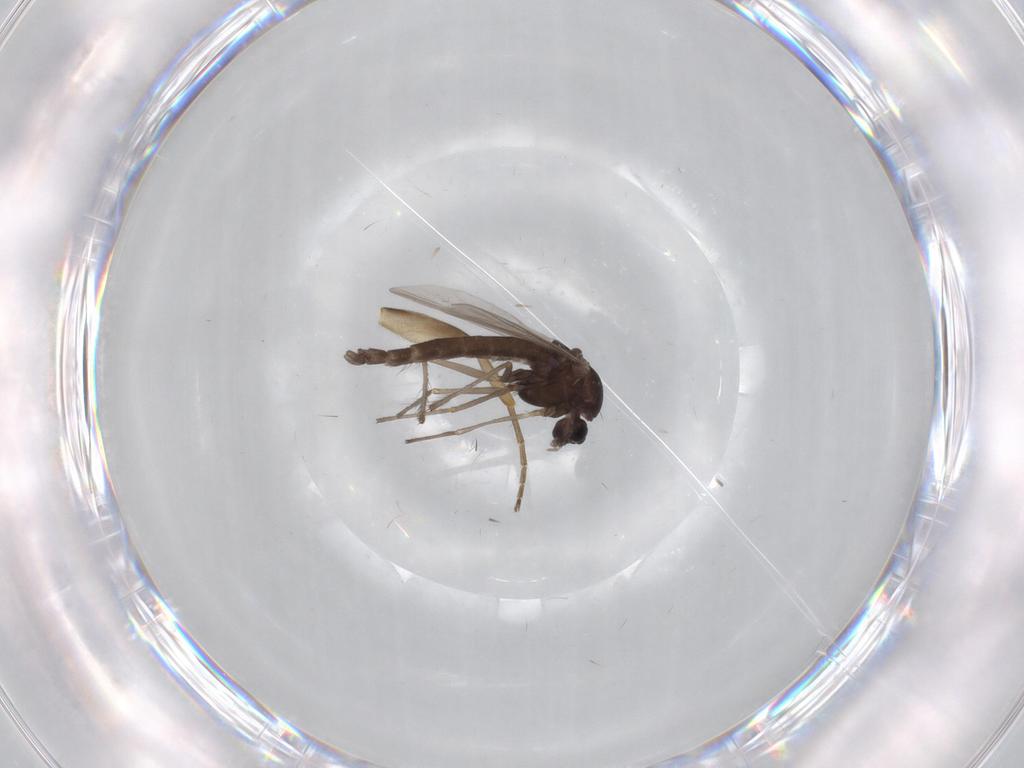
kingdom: Animalia
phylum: Arthropoda
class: Insecta
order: Diptera
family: Chironomidae
